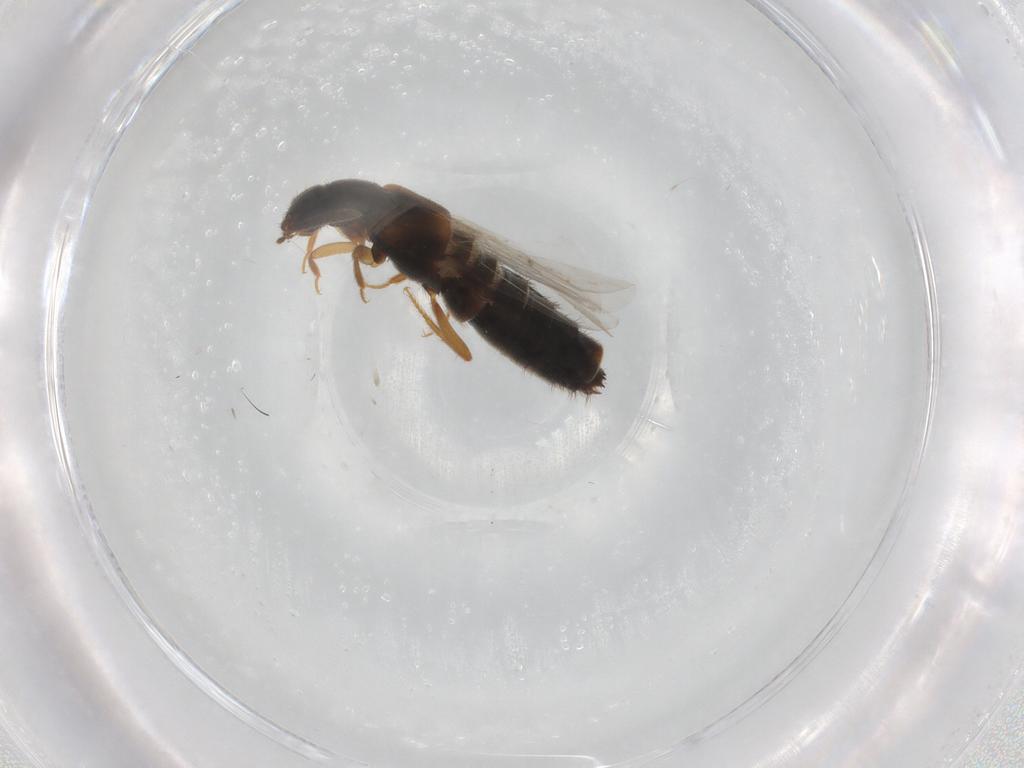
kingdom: Animalia
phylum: Arthropoda
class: Insecta
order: Coleoptera
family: Staphylinidae
